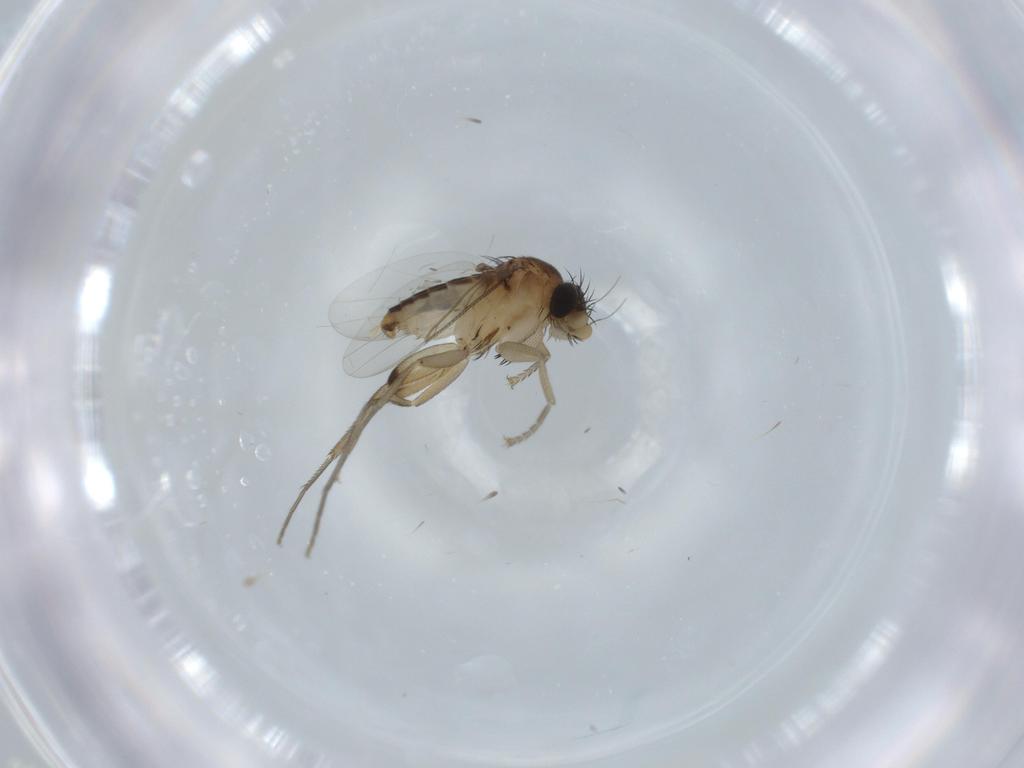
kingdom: Animalia
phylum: Arthropoda
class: Insecta
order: Diptera
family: Phoridae
